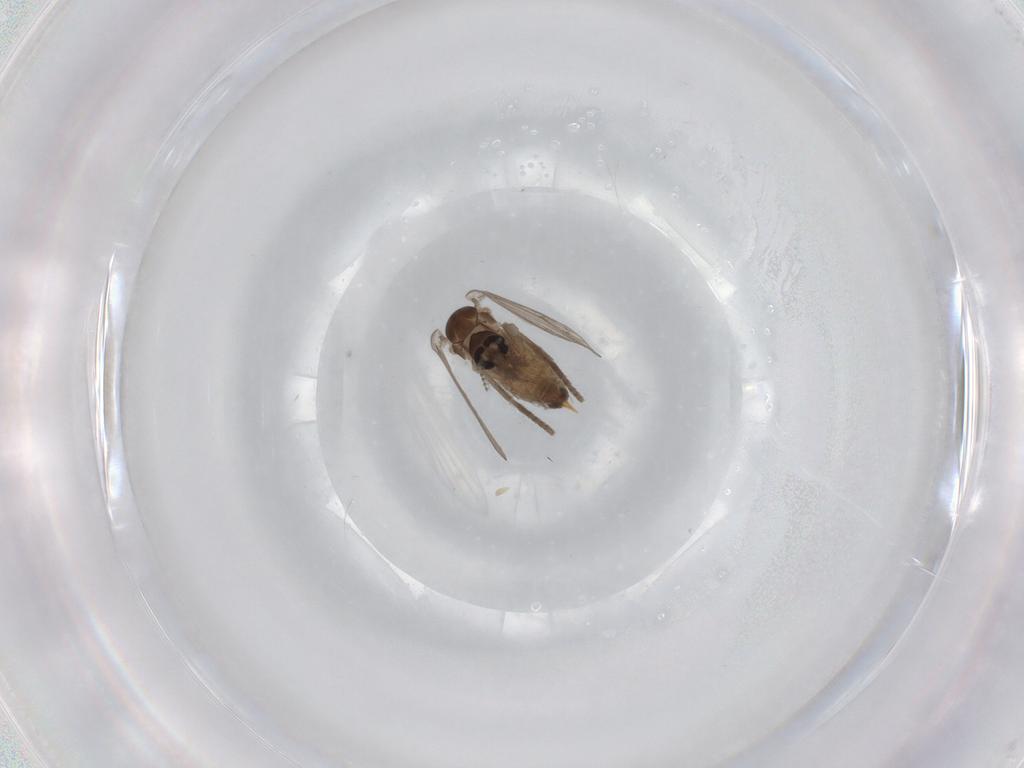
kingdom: Animalia
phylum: Arthropoda
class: Insecta
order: Diptera
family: Psychodidae
